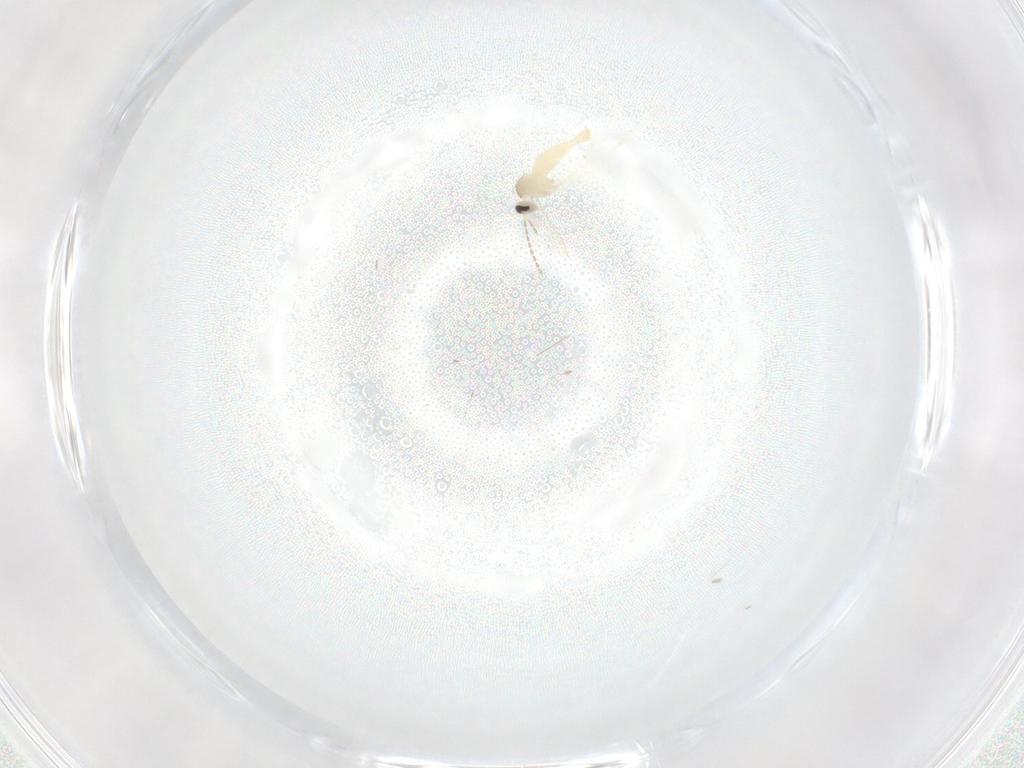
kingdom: Animalia
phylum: Arthropoda
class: Insecta
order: Diptera
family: Cecidomyiidae
